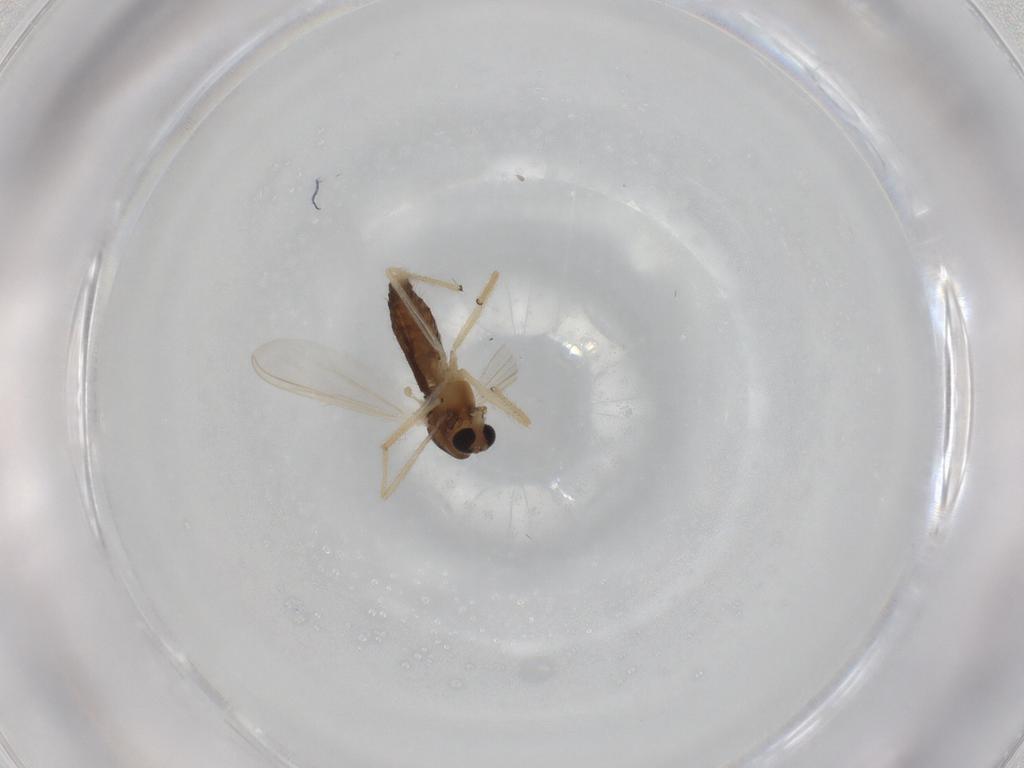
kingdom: Animalia
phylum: Arthropoda
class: Insecta
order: Diptera
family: Chironomidae
